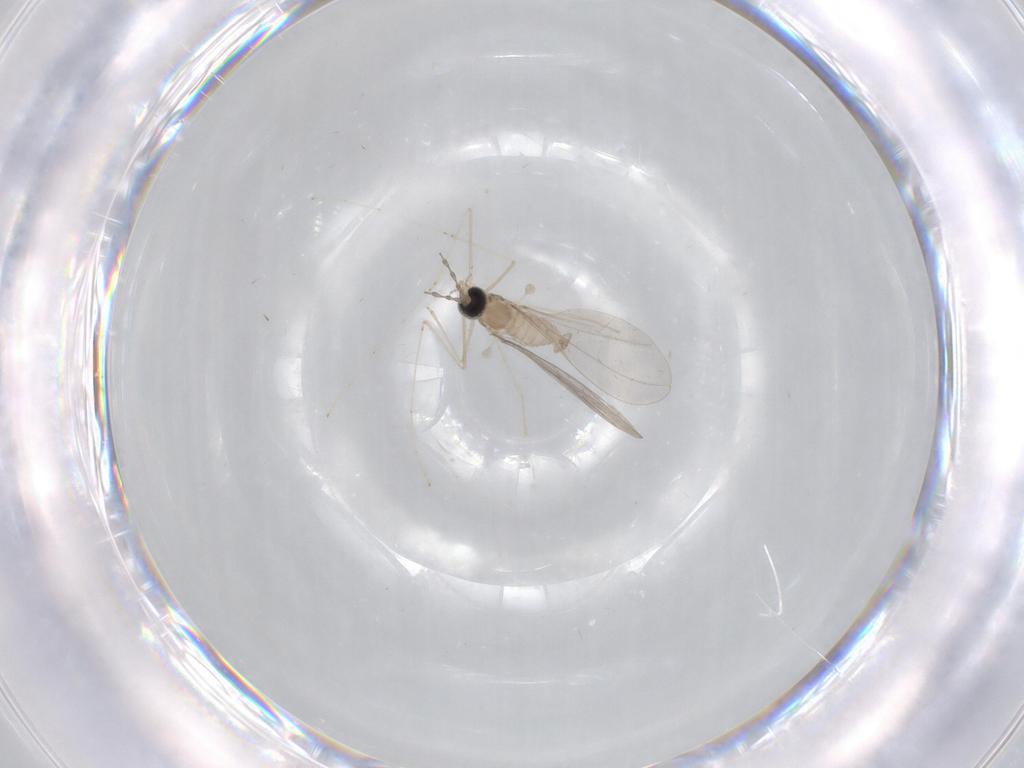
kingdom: Animalia
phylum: Arthropoda
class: Insecta
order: Diptera
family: Cecidomyiidae
